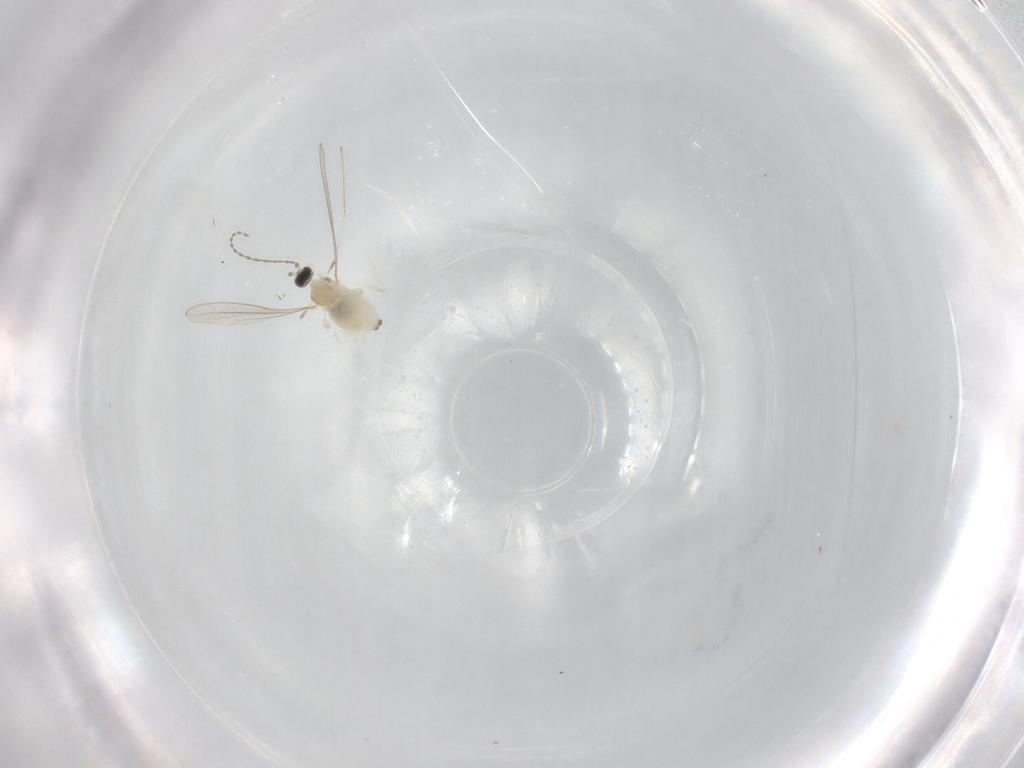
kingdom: Animalia
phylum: Arthropoda
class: Insecta
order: Diptera
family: Cecidomyiidae
